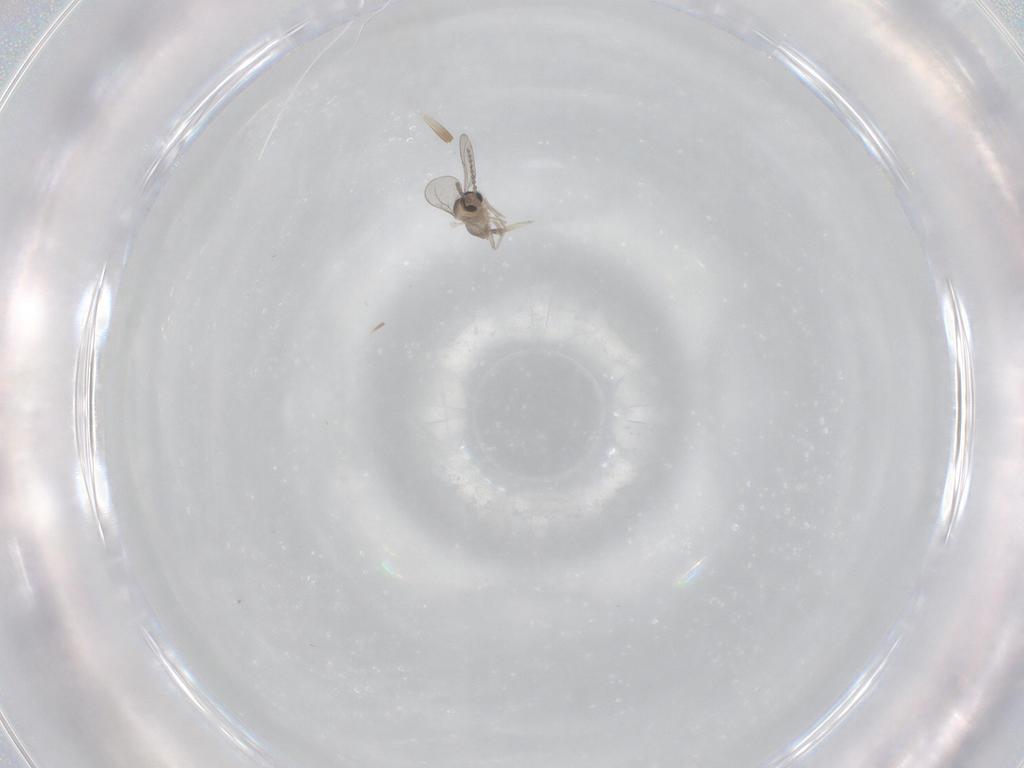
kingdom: Animalia
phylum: Arthropoda
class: Insecta
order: Diptera
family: Cecidomyiidae
